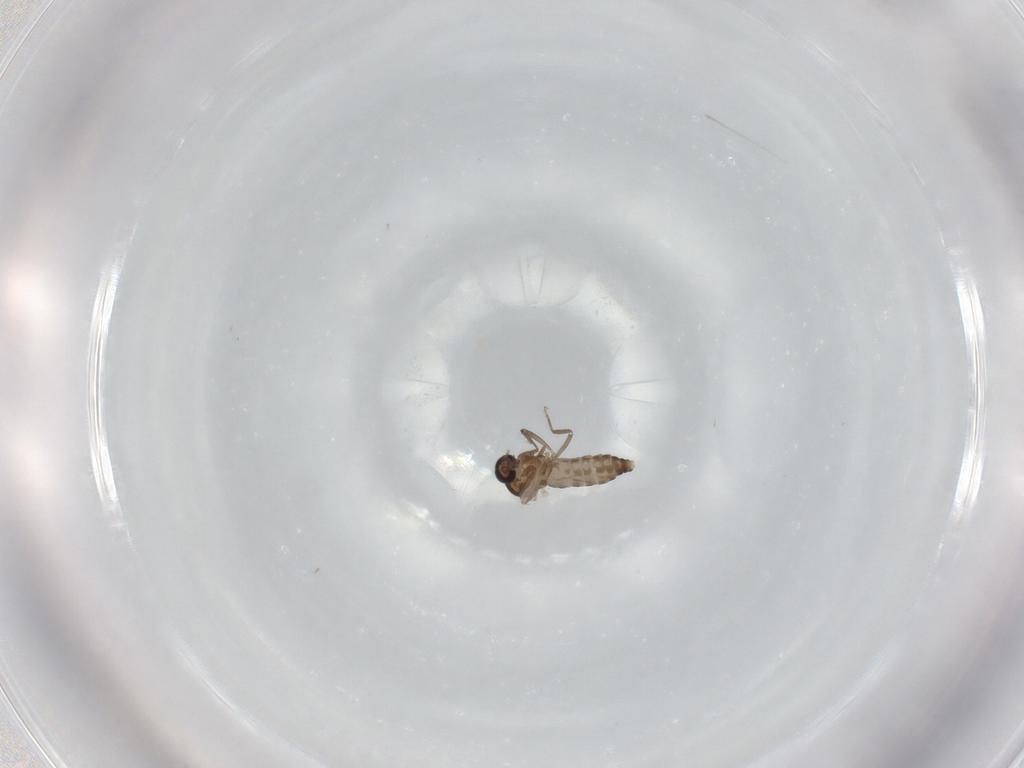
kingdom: Animalia
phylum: Arthropoda
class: Insecta
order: Diptera
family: Ceratopogonidae
